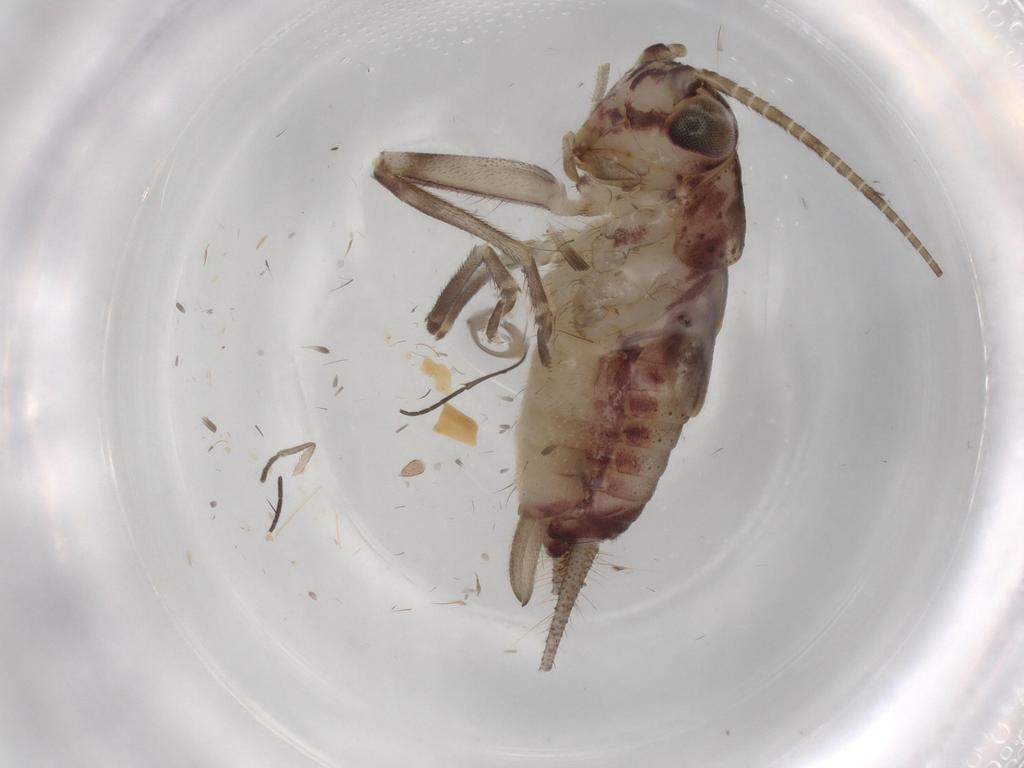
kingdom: Animalia
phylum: Arthropoda
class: Insecta
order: Orthoptera
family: Trigonidiidae
